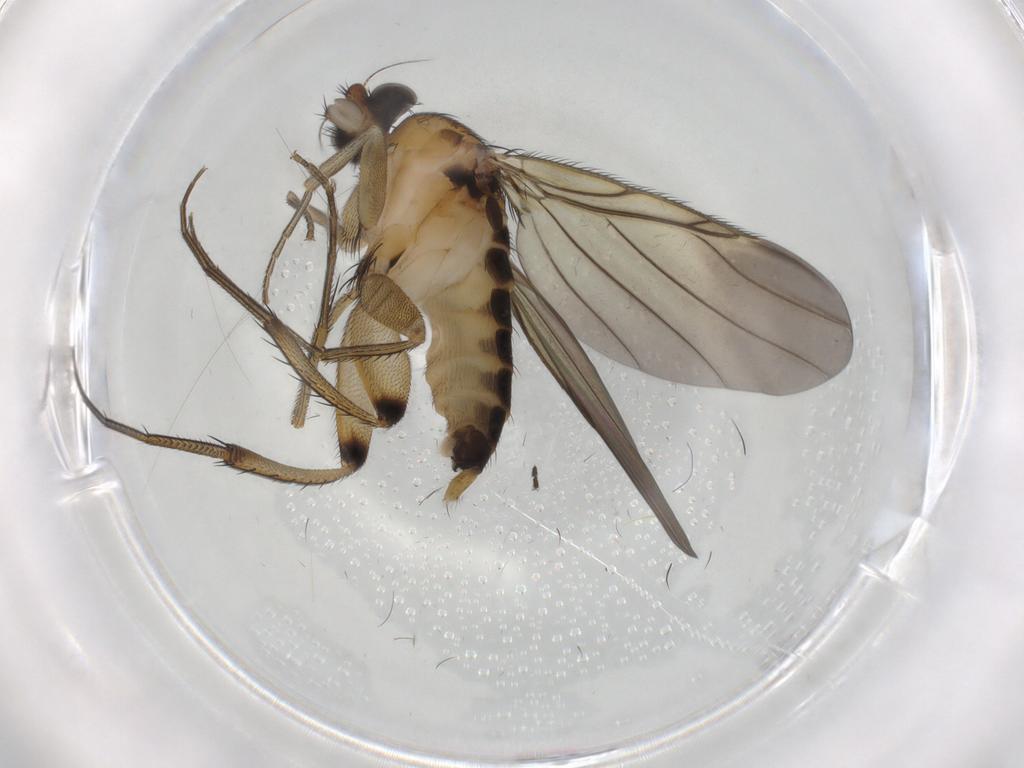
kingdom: Animalia
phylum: Arthropoda
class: Insecta
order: Diptera
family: Phoridae
